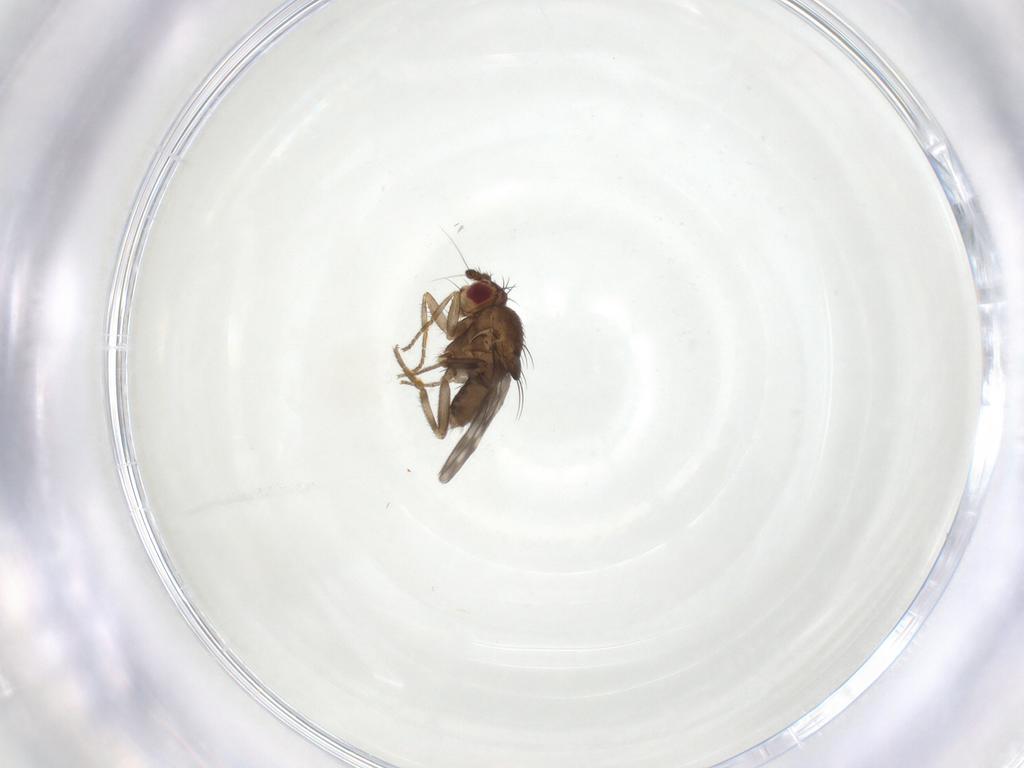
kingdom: Animalia
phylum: Arthropoda
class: Insecta
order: Diptera
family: Sphaeroceridae
